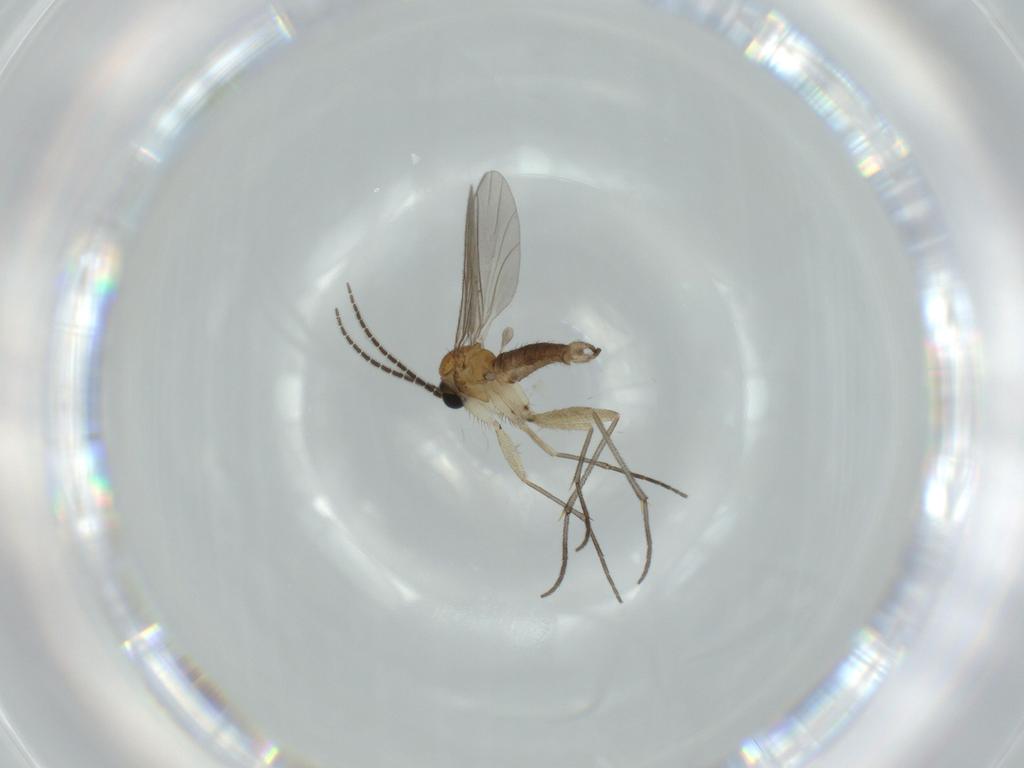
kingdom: Animalia
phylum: Arthropoda
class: Insecta
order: Diptera
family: Sciaridae
